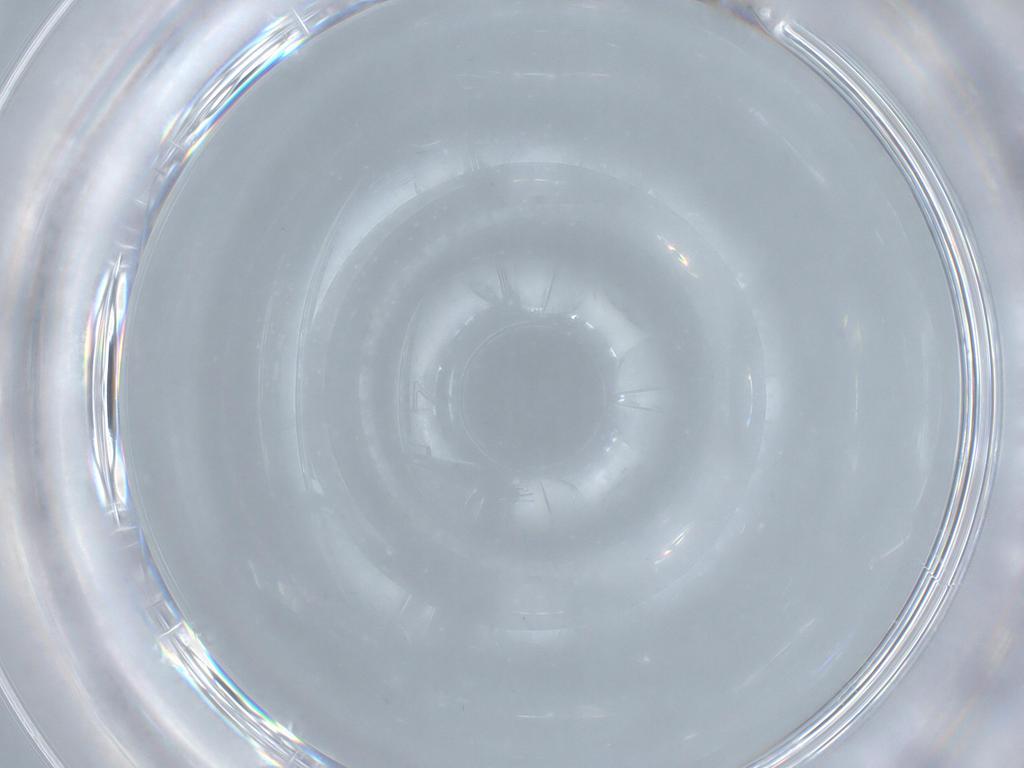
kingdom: Animalia
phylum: Arthropoda
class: Insecta
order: Diptera
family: Cecidomyiidae
